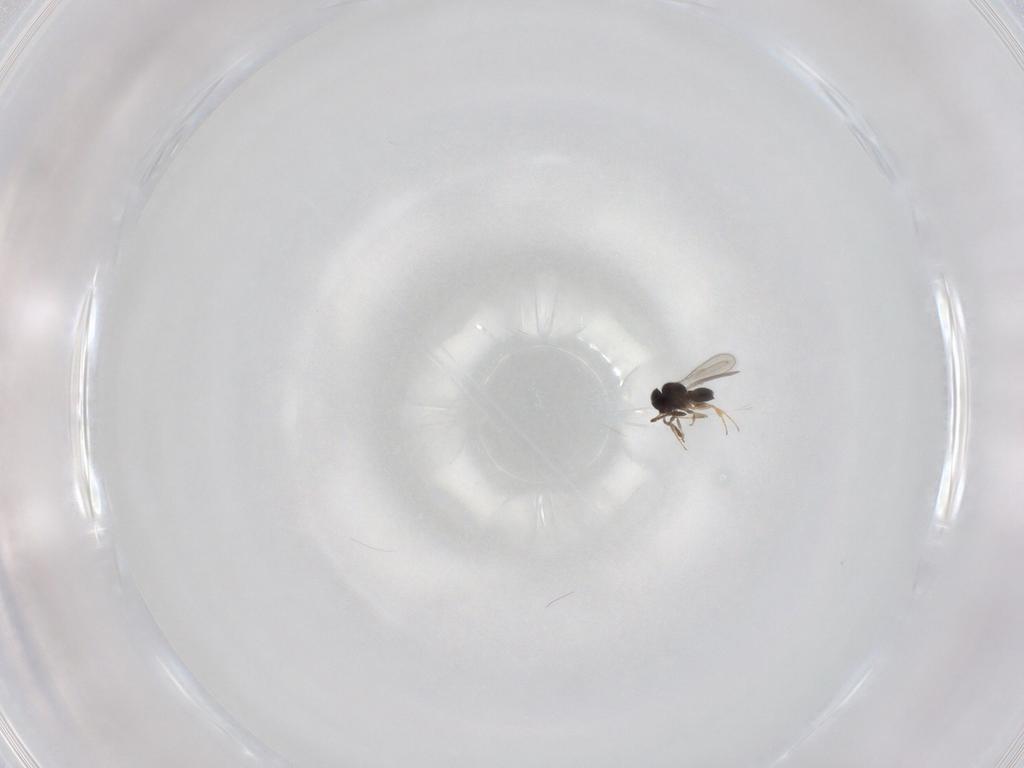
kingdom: Animalia
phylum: Arthropoda
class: Insecta
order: Hymenoptera
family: Scelionidae
